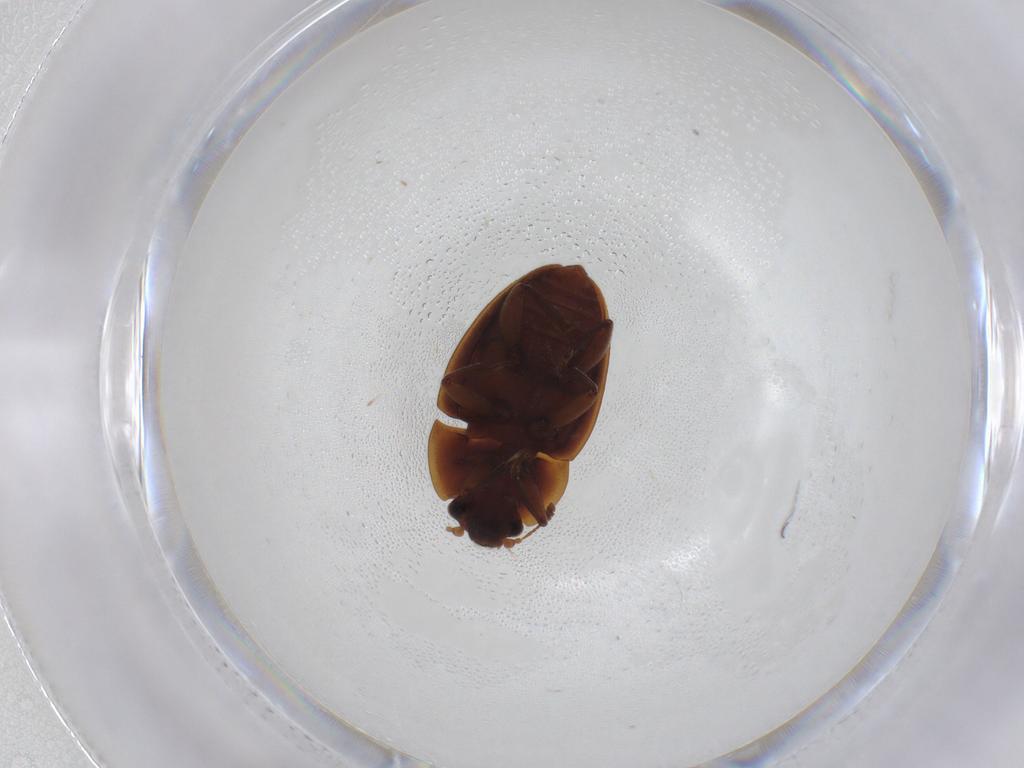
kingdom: Animalia
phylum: Arthropoda
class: Insecta
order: Coleoptera
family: Nitidulidae
